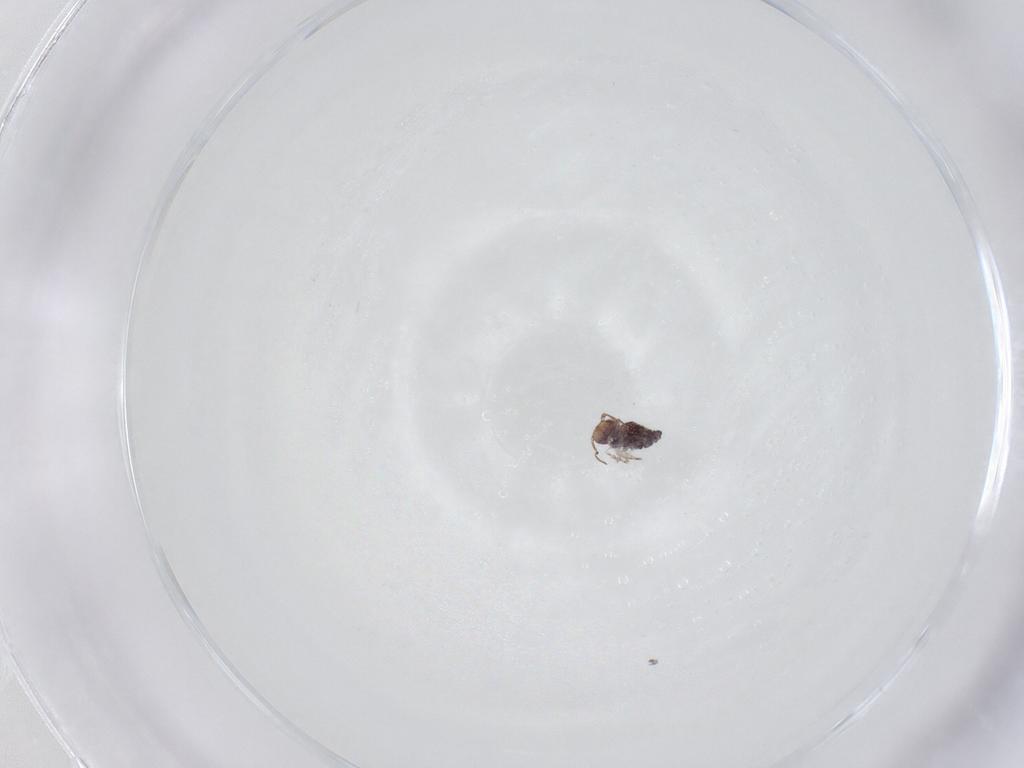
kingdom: Animalia
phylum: Arthropoda
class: Collembola
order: Symphypleona
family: Bourletiellidae
